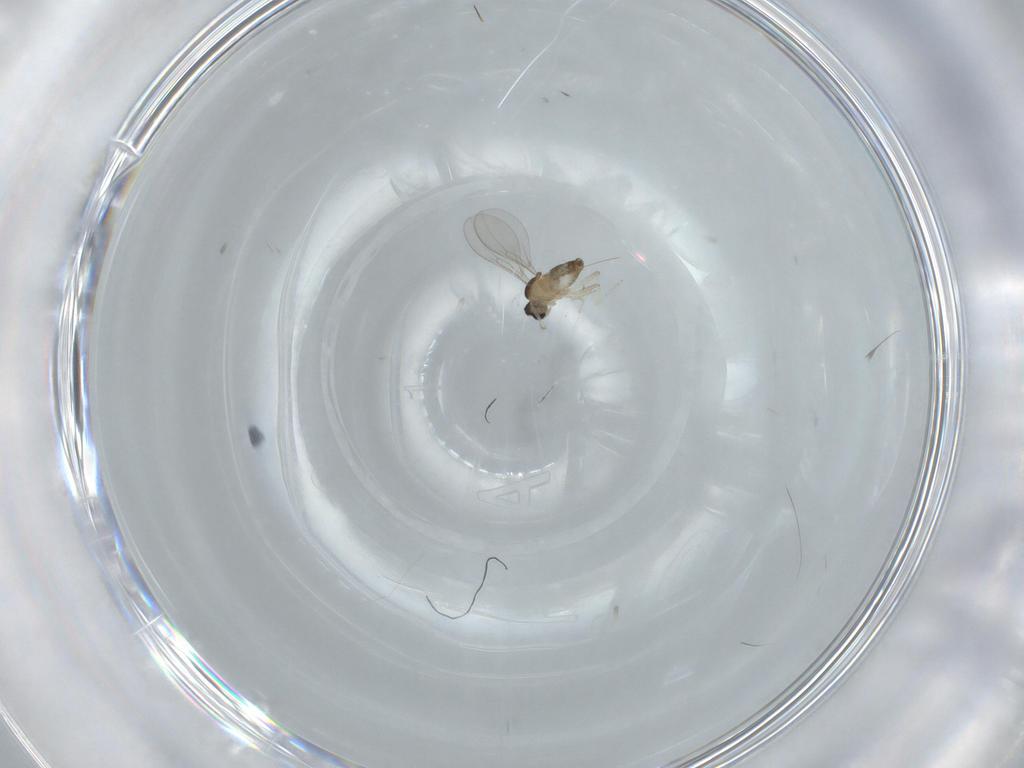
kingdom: Animalia
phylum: Arthropoda
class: Insecta
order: Diptera
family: Cecidomyiidae
